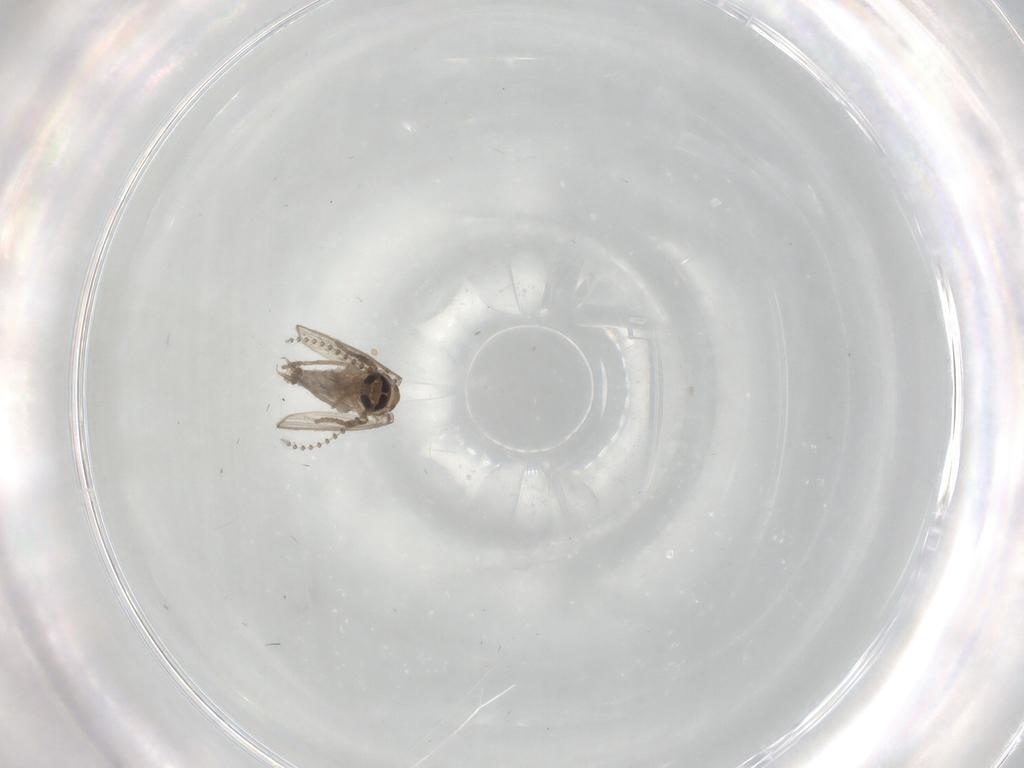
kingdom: Animalia
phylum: Arthropoda
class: Insecta
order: Diptera
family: Psychodidae
